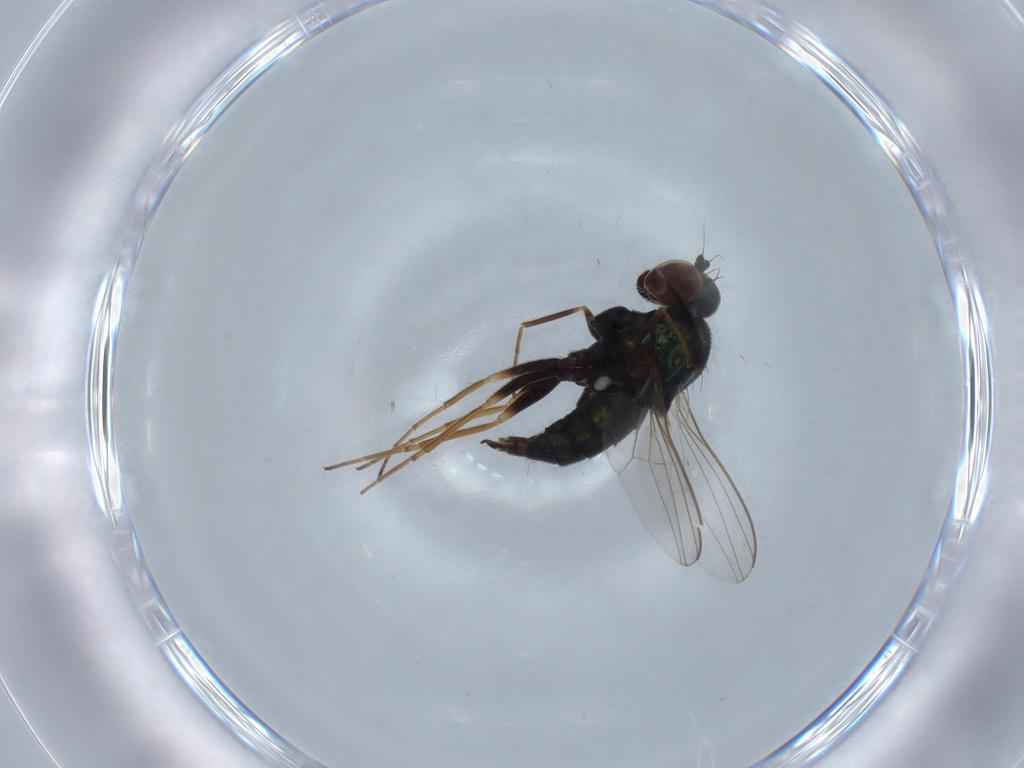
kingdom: Animalia
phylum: Arthropoda
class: Insecta
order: Diptera
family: Dolichopodidae
